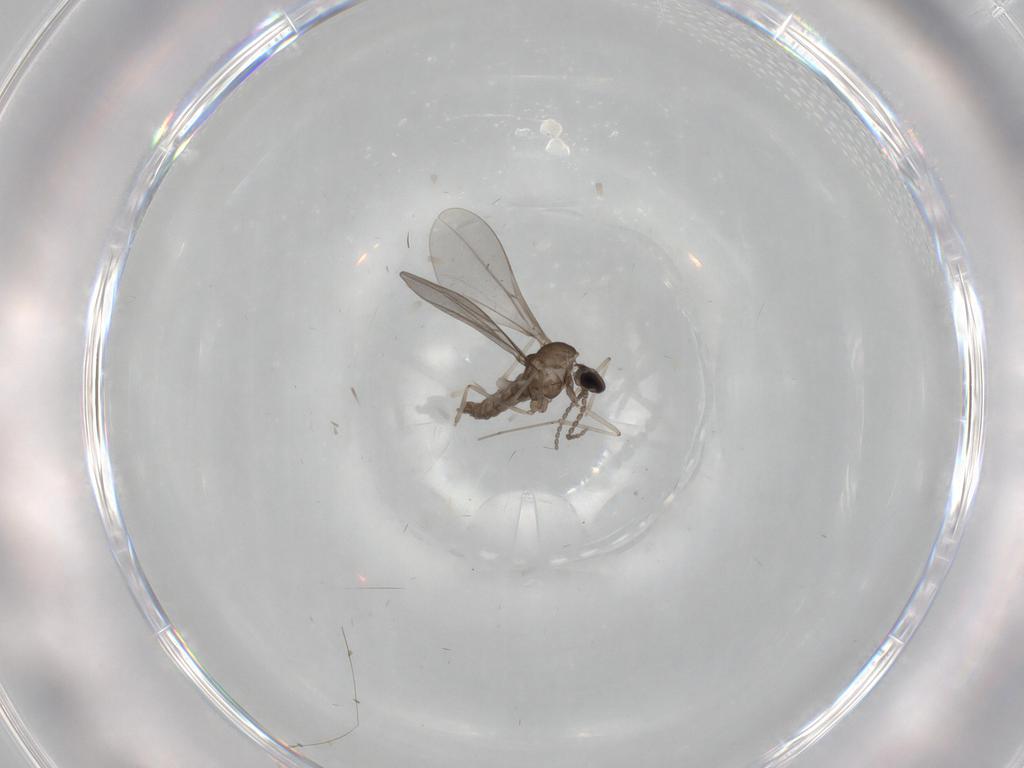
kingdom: Animalia
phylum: Arthropoda
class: Insecta
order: Diptera
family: Cecidomyiidae
